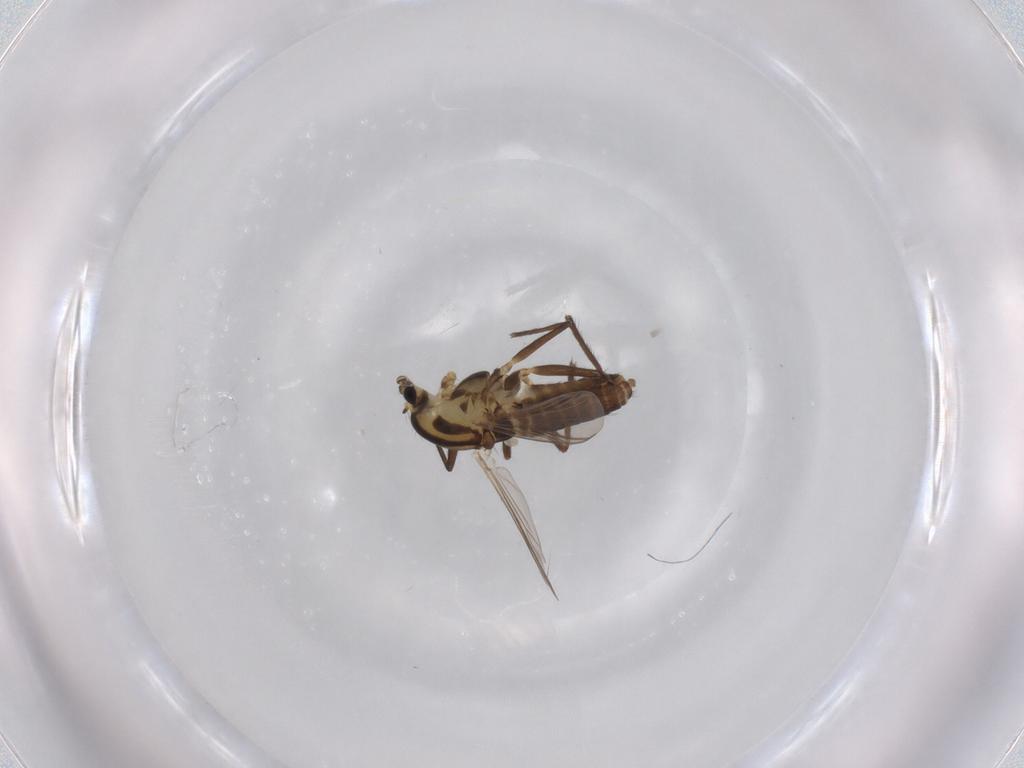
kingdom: Animalia
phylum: Arthropoda
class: Insecta
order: Diptera
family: Chironomidae
